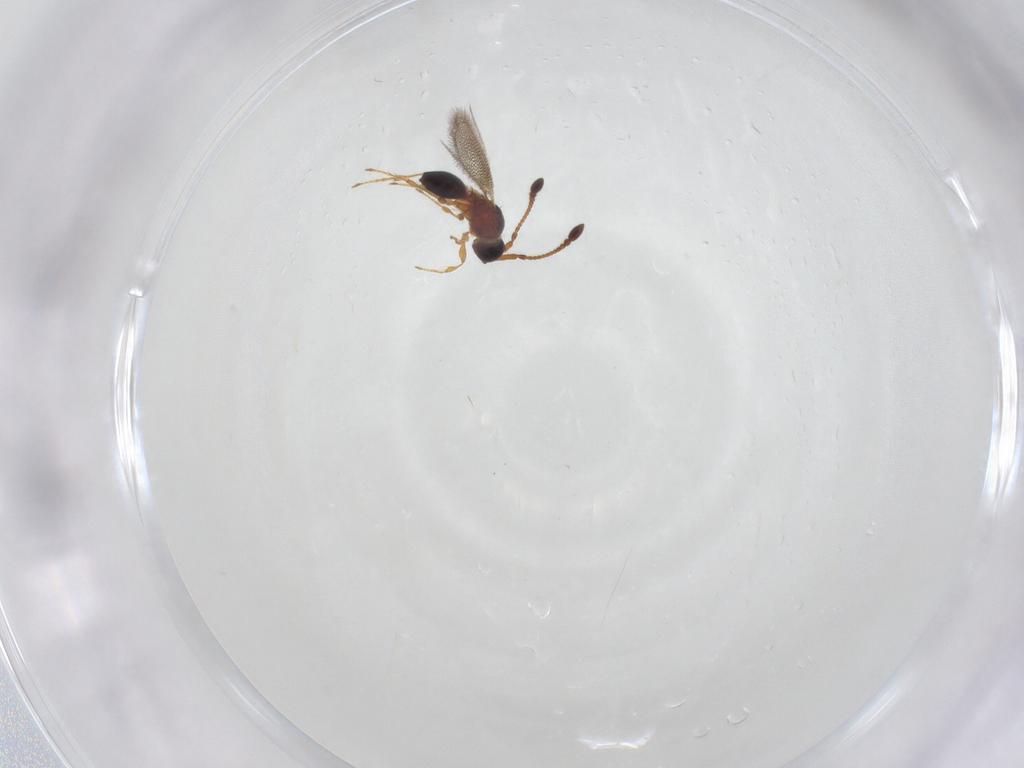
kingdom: Animalia
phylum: Arthropoda
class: Insecta
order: Hymenoptera
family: Diapriidae
